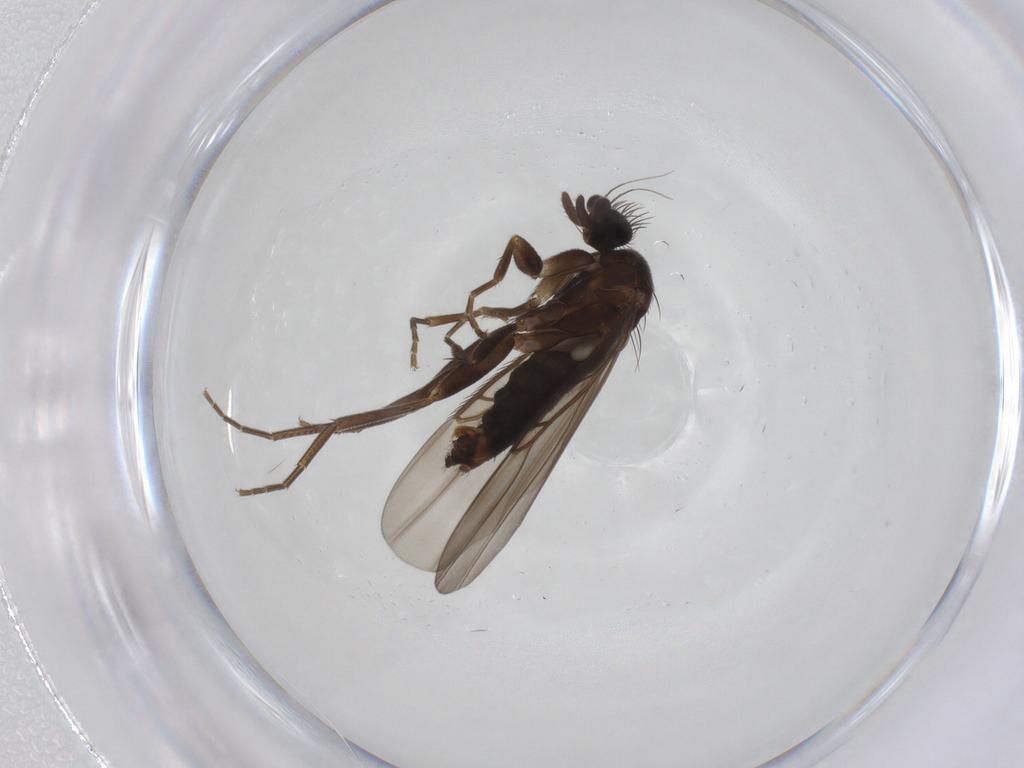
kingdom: Animalia
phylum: Arthropoda
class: Insecta
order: Diptera
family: Phoridae
